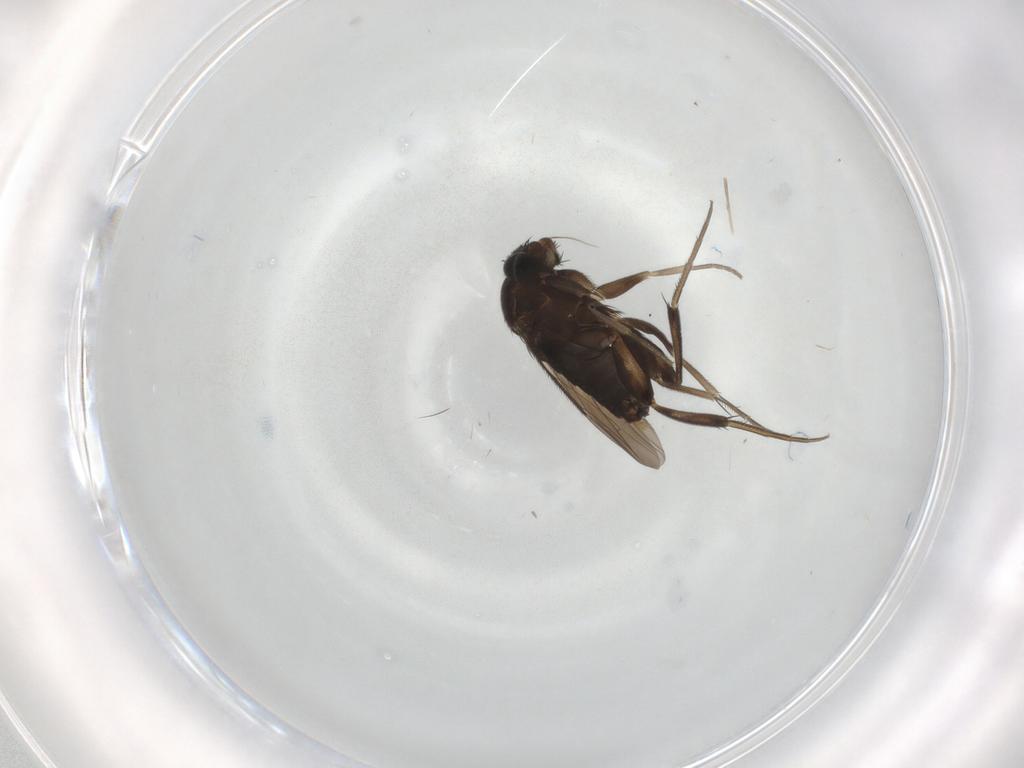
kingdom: Animalia
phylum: Arthropoda
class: Insecta
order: Diptera
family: Phoridae
